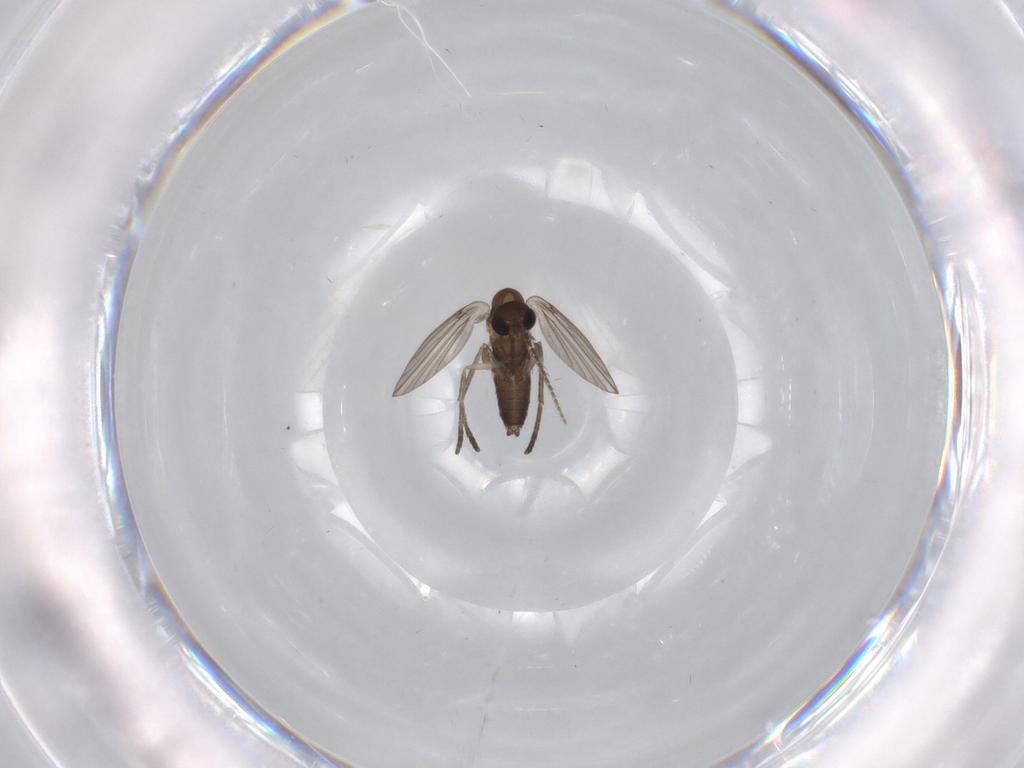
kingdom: Animalia
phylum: Arthropoda
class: Insecta
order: Diptera
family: Psychodidae
